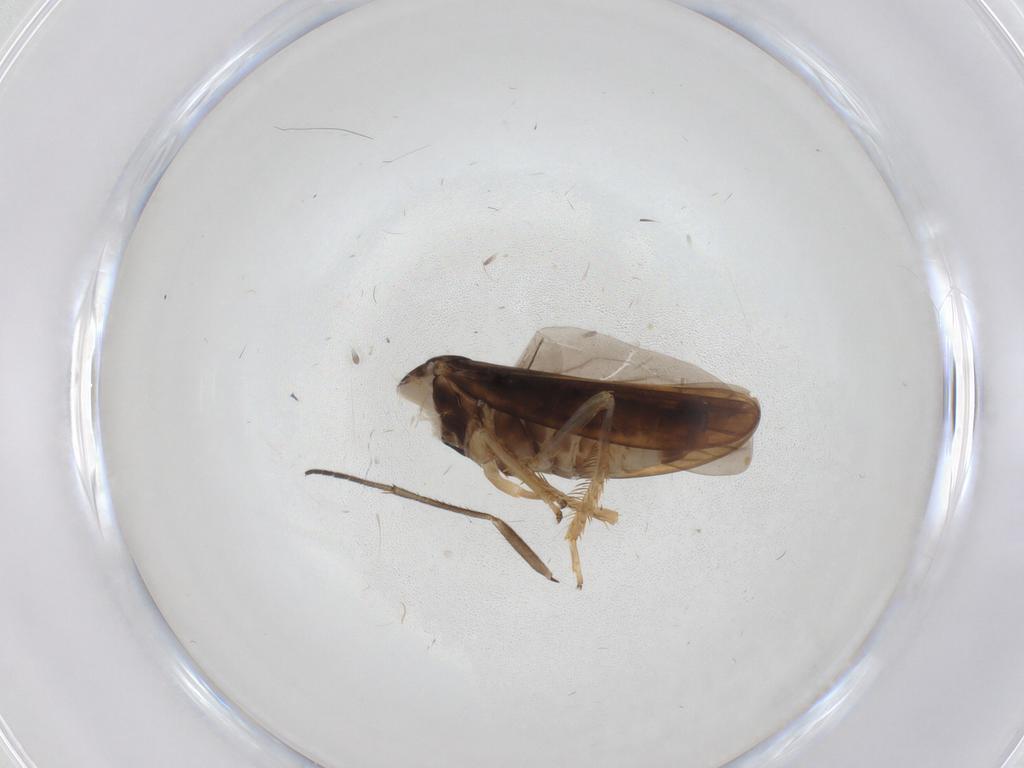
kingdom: Animalia
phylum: Arthropoda
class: Insecta
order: Hemiptera
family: Cicadellidae
